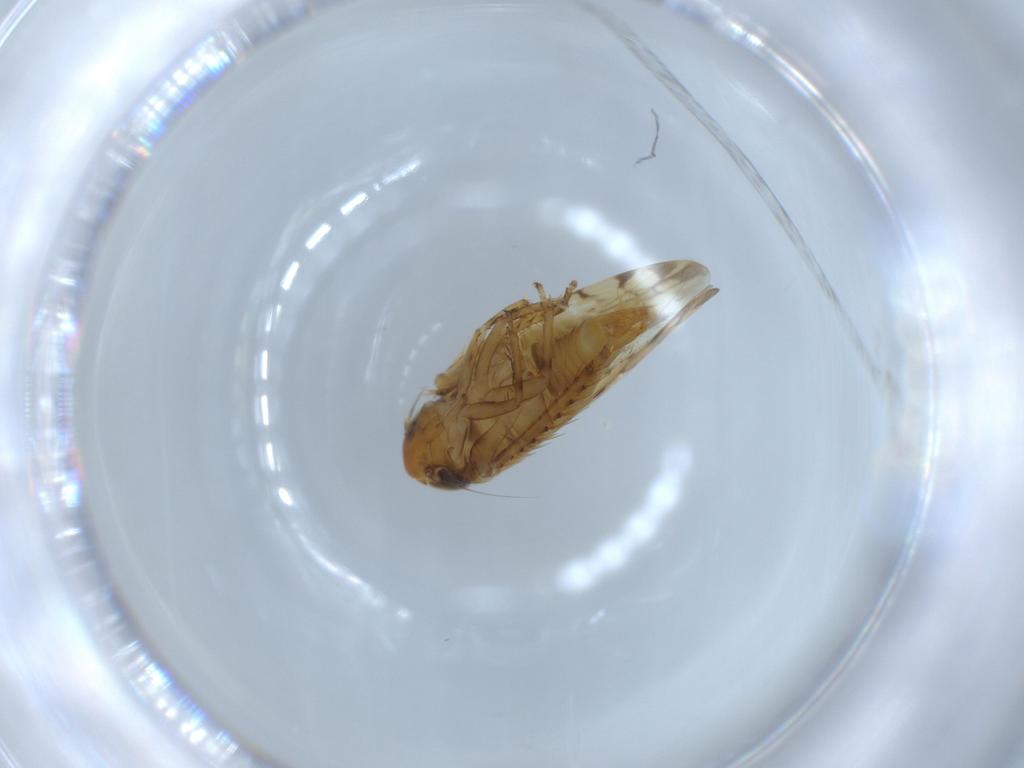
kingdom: Animalia
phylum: Arthropoda
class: Insecta
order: Hemiptera
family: Cicadellidae
